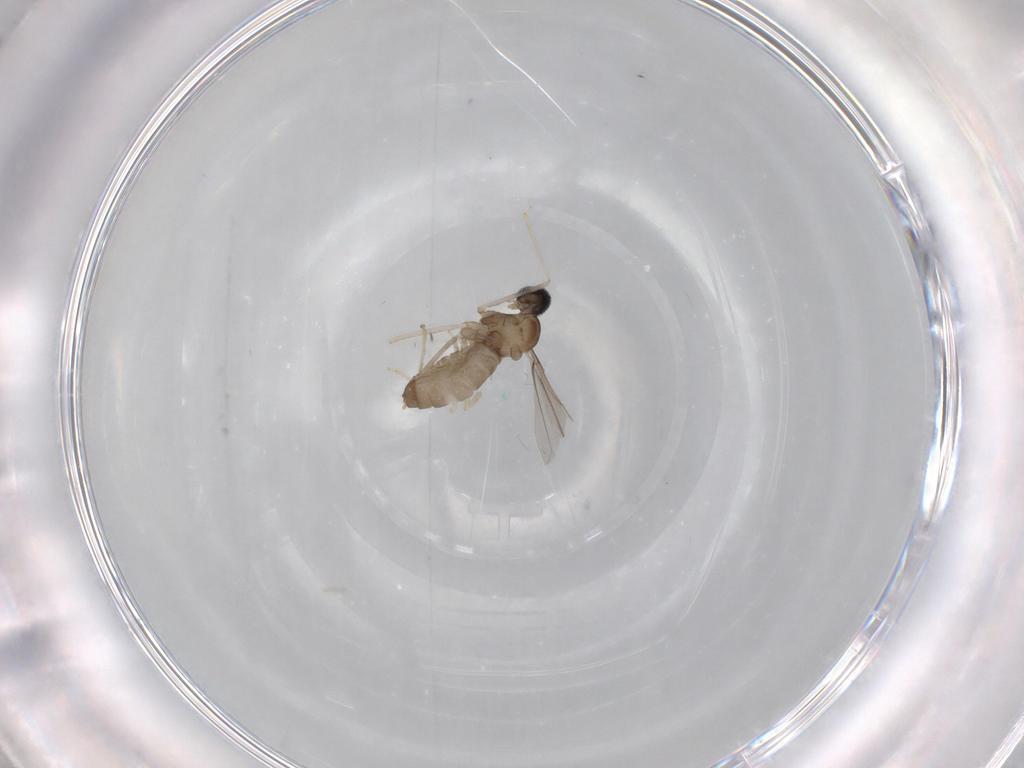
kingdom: Animalia
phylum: Arthropoda
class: Insecta
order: Diptera
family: Cecidomyiidae
